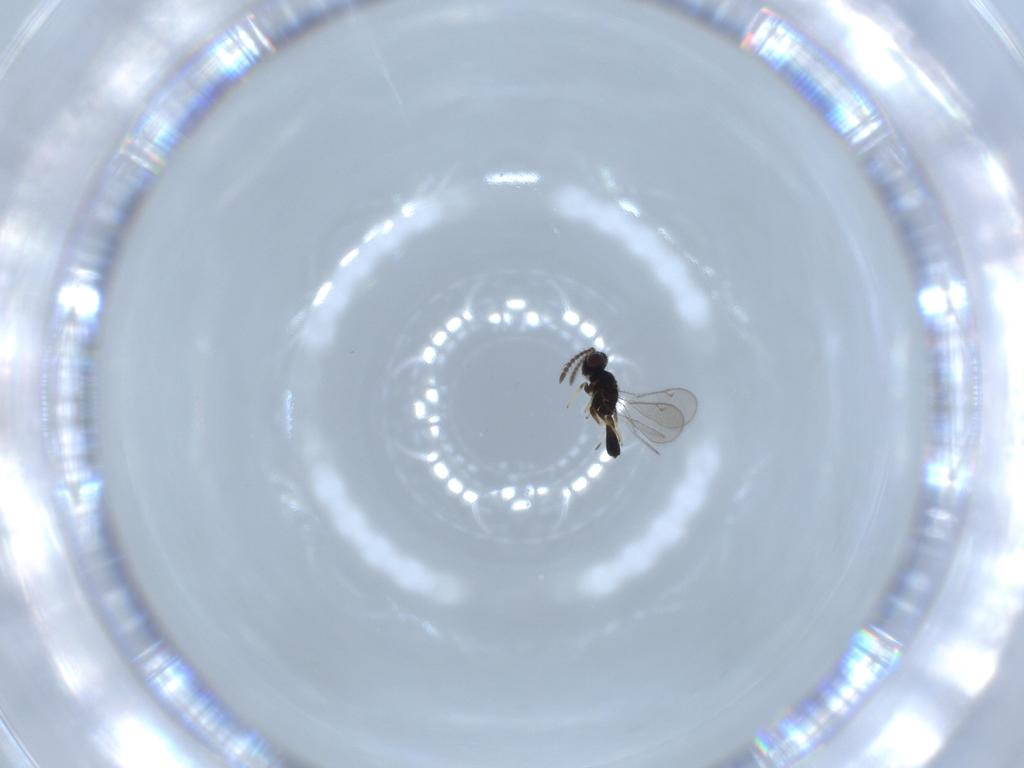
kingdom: Animalia
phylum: Arthropoda
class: Insecta
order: Hymenoptera
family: Eupelmidae
